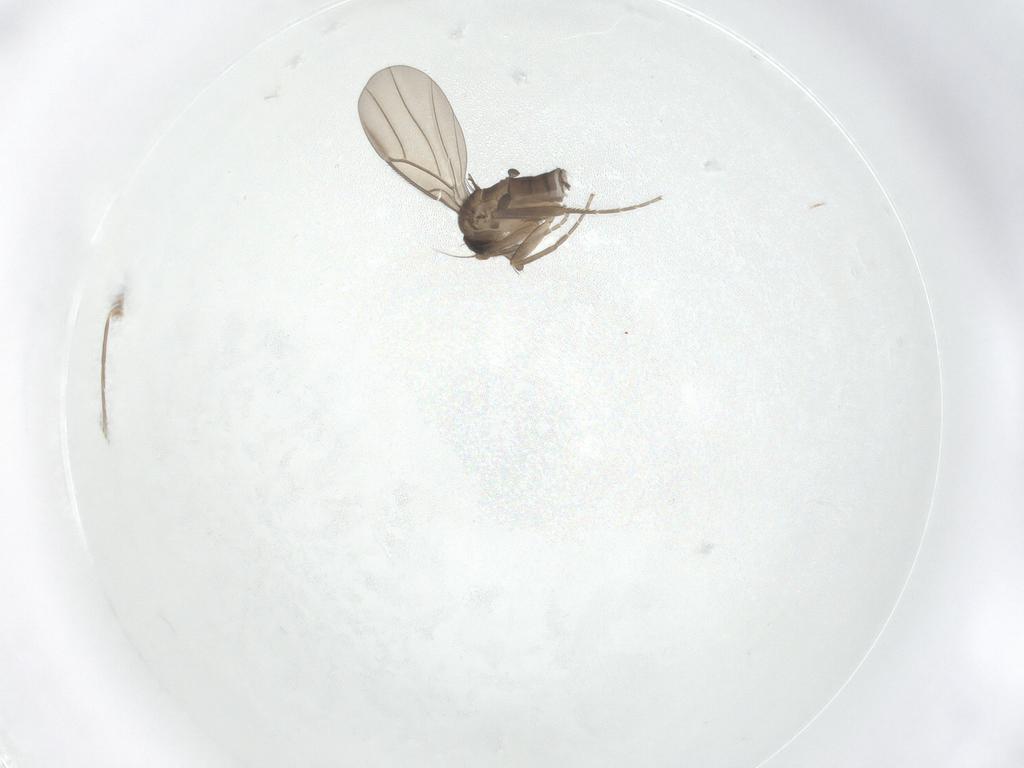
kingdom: Animalia
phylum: Arthropoda
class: Insecta
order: Diptera
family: Phoridae
